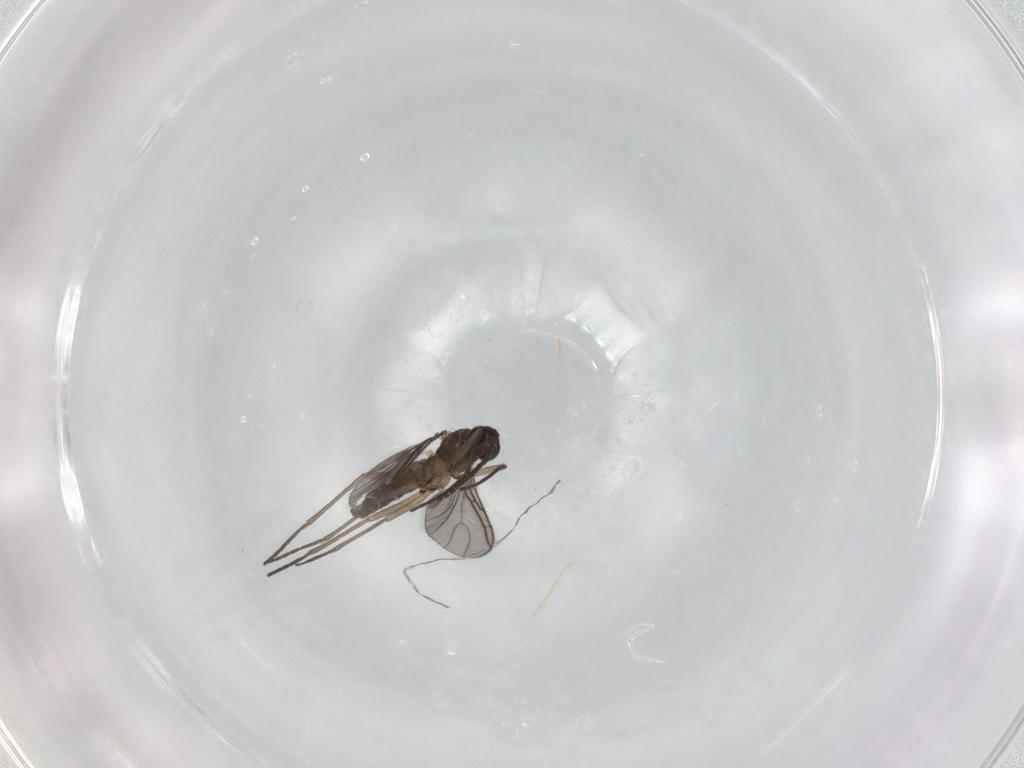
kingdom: Animalia
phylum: Arthropoda
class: Insecta
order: Diptera
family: Sciaridae
